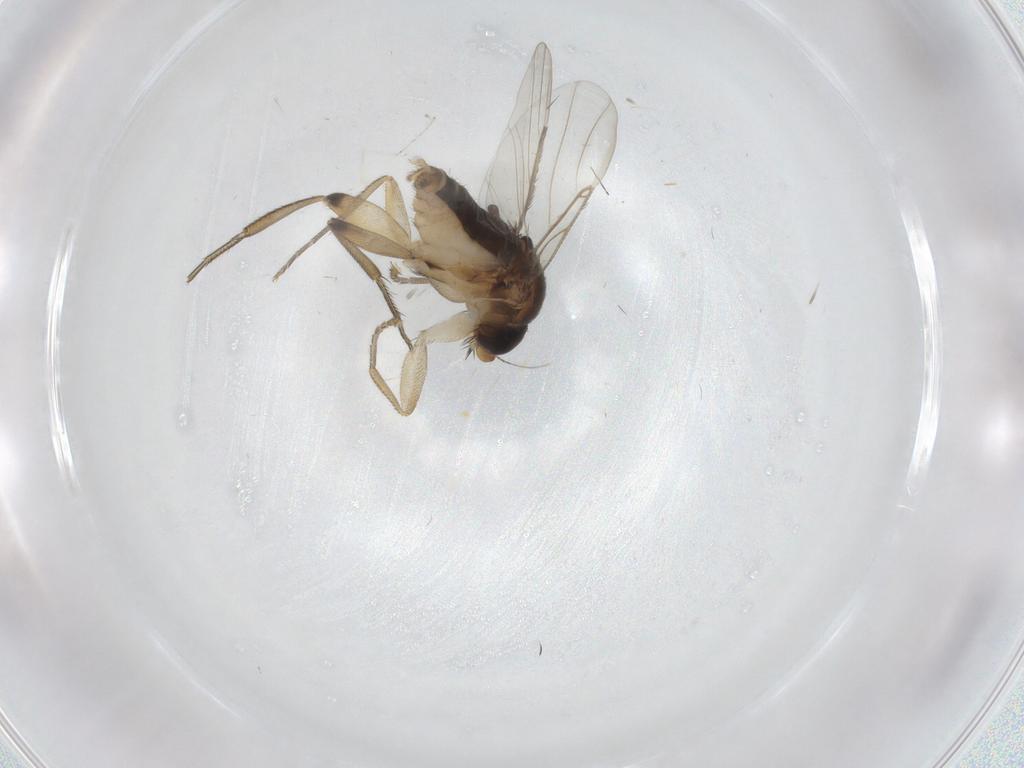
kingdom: Animalia
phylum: Arthropoda
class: Insecta
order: Diptera
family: Phoridae
